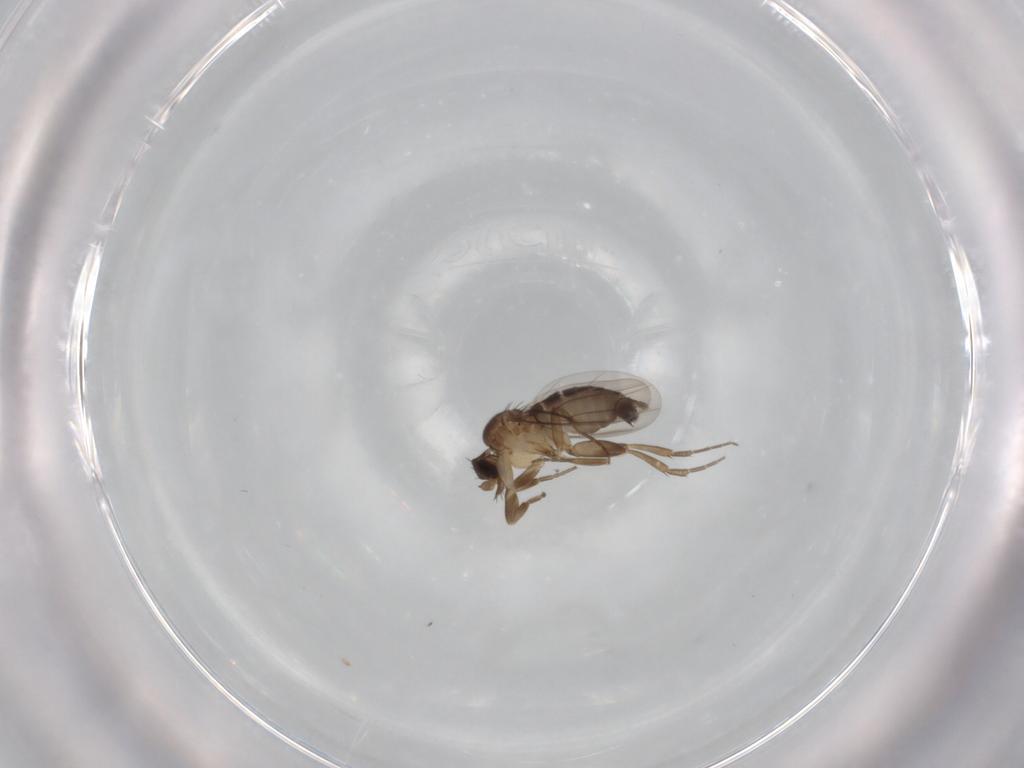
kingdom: Animalia
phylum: Arthropoda
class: Insecta
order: Diptera
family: Phoridae
